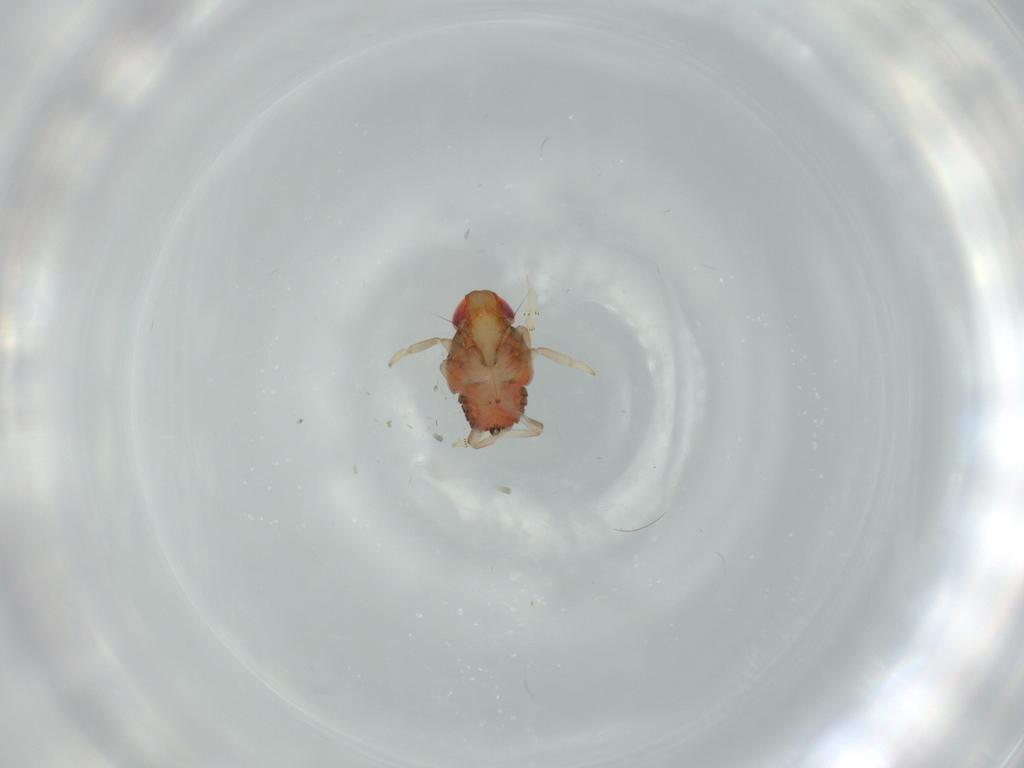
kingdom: Animalia
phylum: Arthropoda
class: Insecta
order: Hemiptera
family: Issidae
